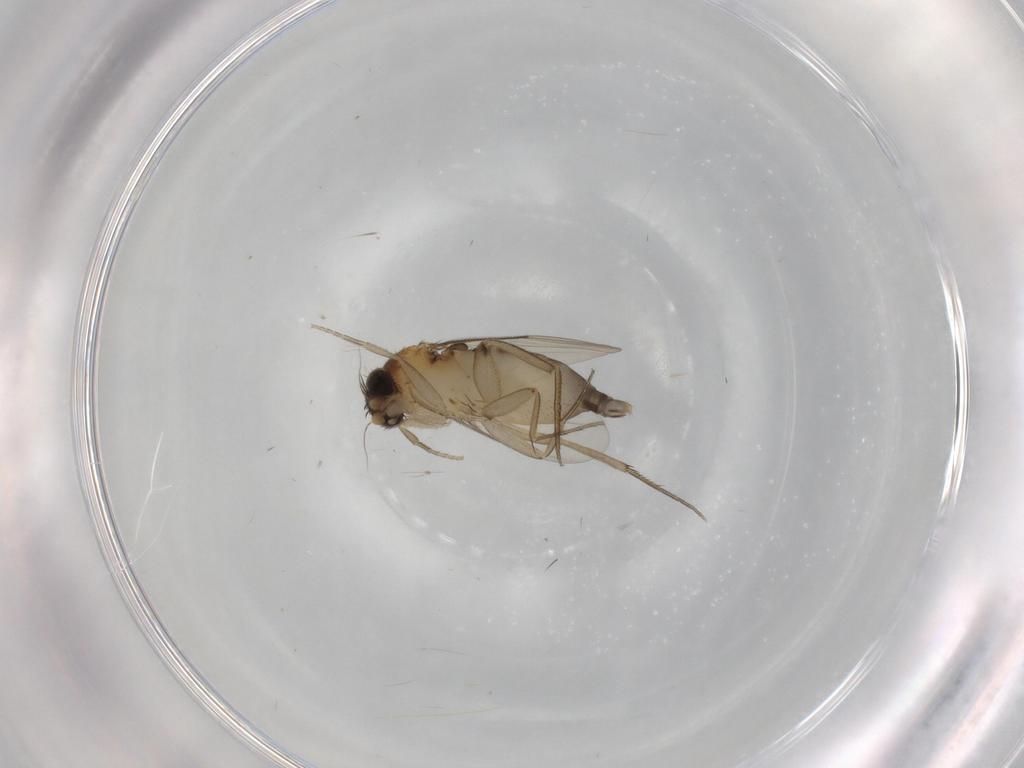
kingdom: Animalia
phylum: Arthropoda
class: Insecta
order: Diptera
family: Phoridae
